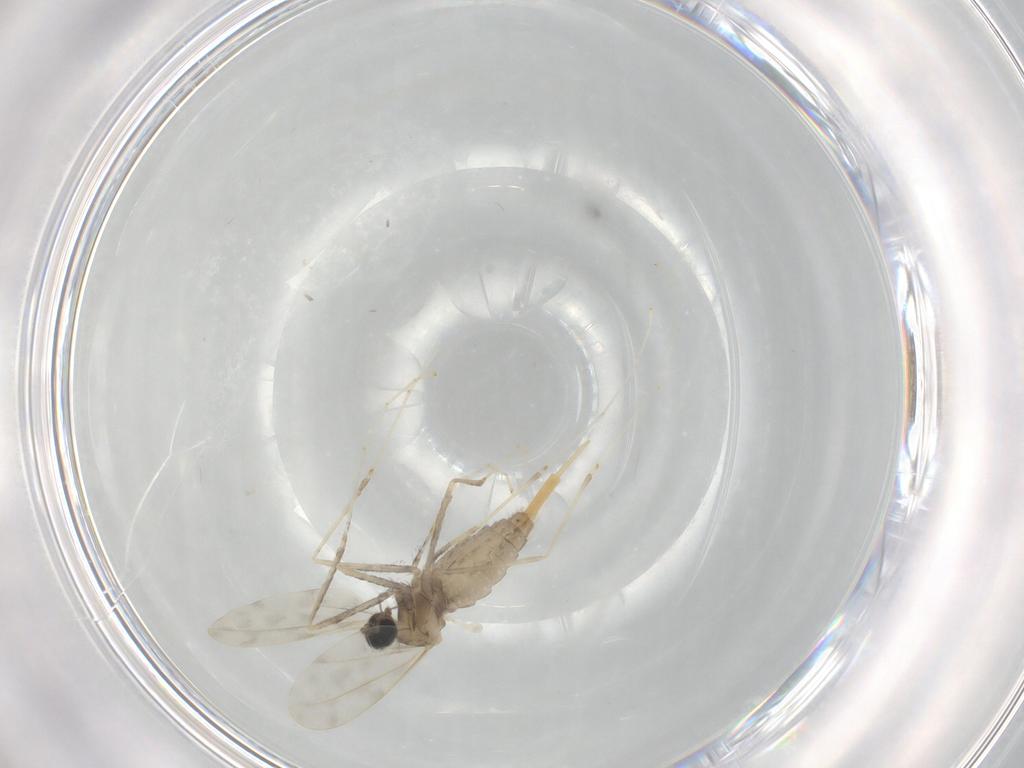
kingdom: Animalia
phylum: Arthropoda
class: Insecta
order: Diptera
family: Cecidomyiidae
